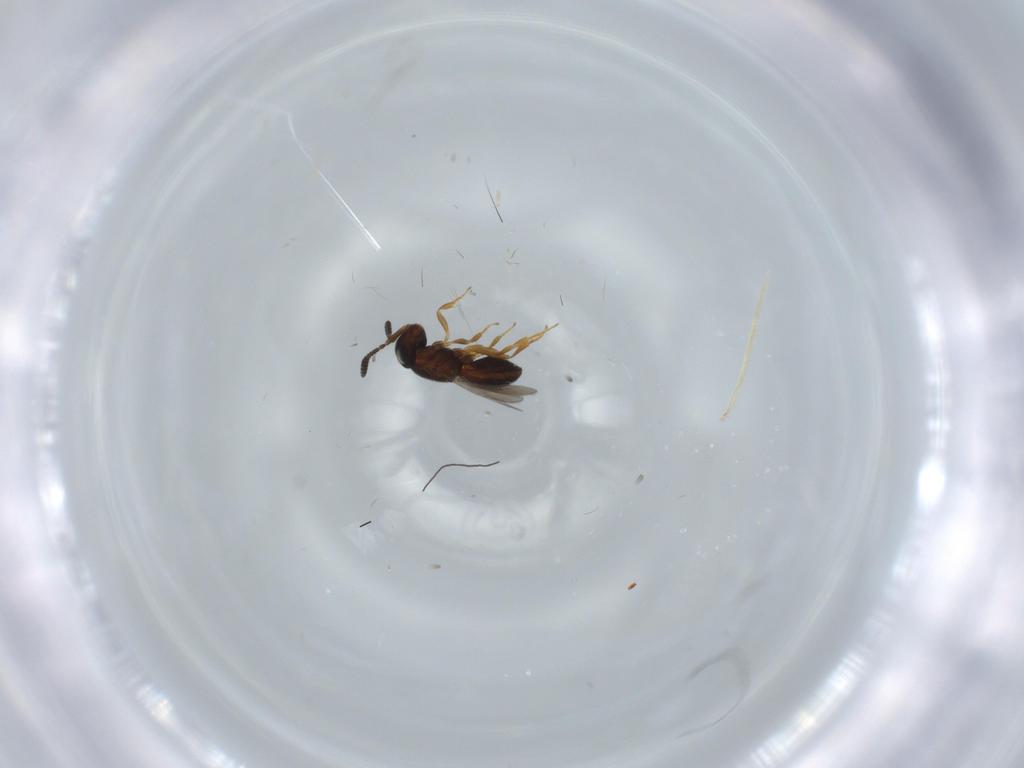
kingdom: Animalia
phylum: Arthropoda
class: Insecta
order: Hymenoptera
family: Scelionidae
